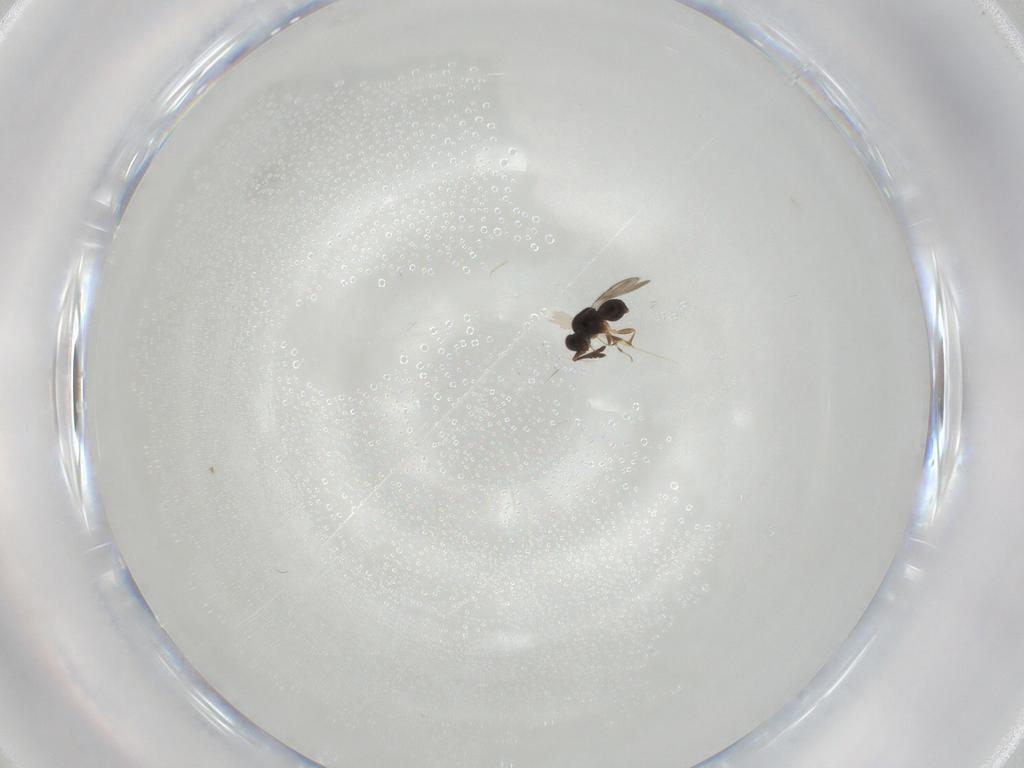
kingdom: Animalia
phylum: Arthropoda
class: Insecta
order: Hymenoptera
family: Ceraphronidae
